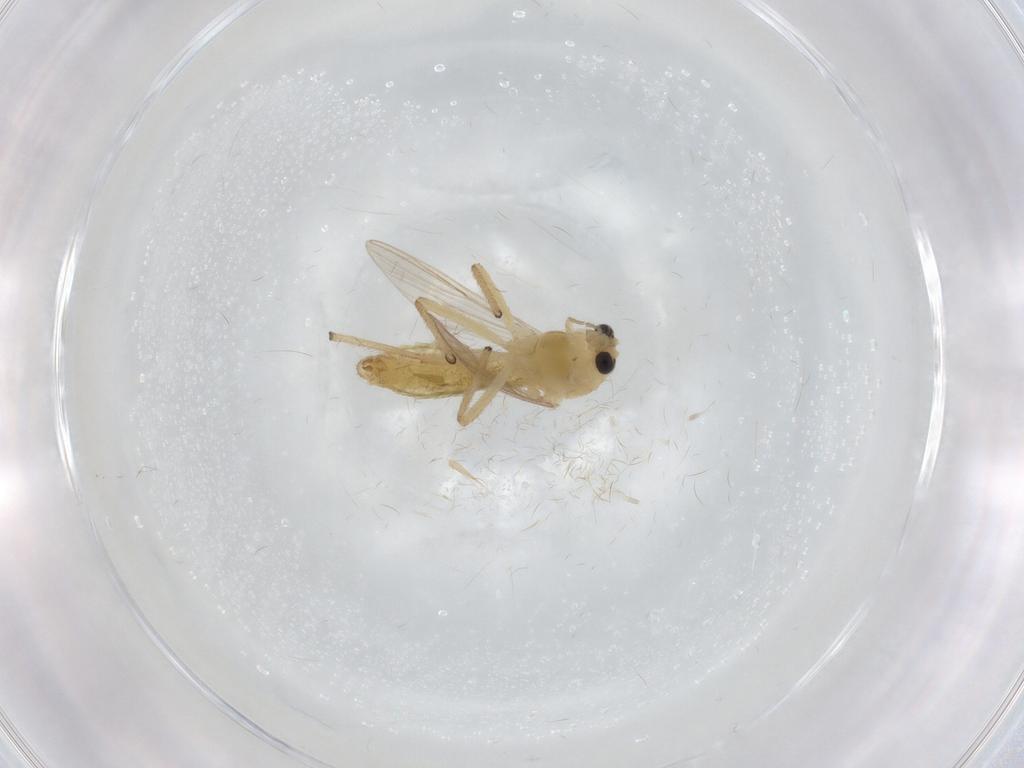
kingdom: Animalia
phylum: Arthropoda
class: Insecta
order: Diptera
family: Chironomidae
